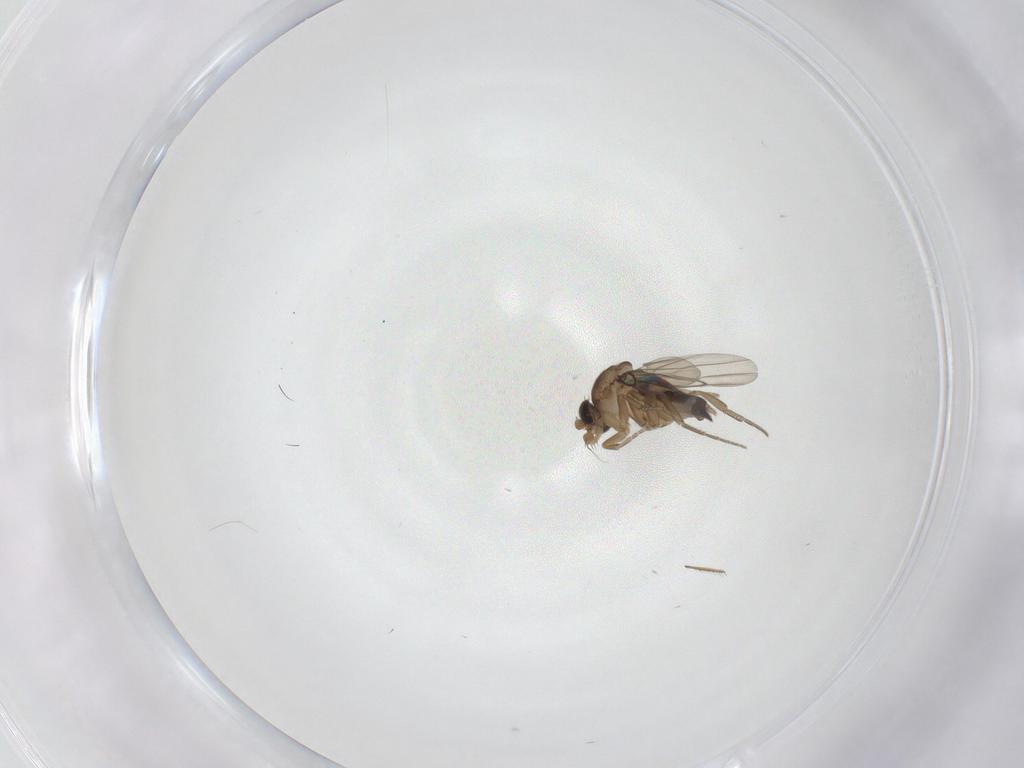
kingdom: Animalia
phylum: Arthropoda
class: Insecta
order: Diptera
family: Phoridae
